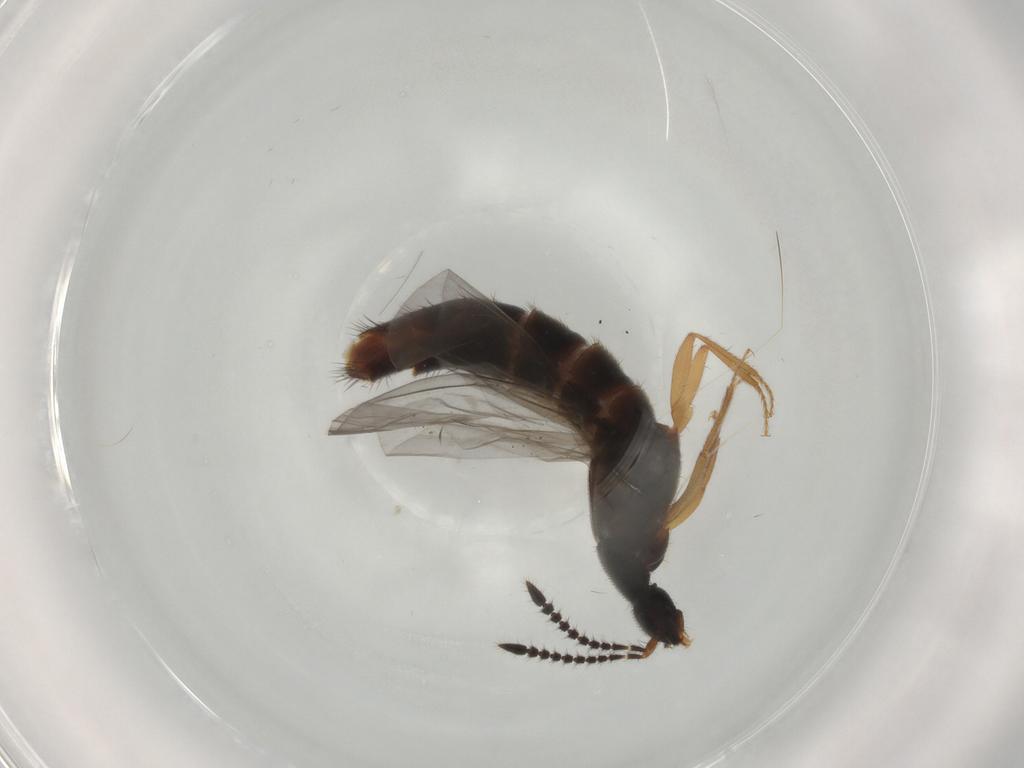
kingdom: Animalia
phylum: Arthropoda
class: Insecta
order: Coleoptera
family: Staphylinidae
